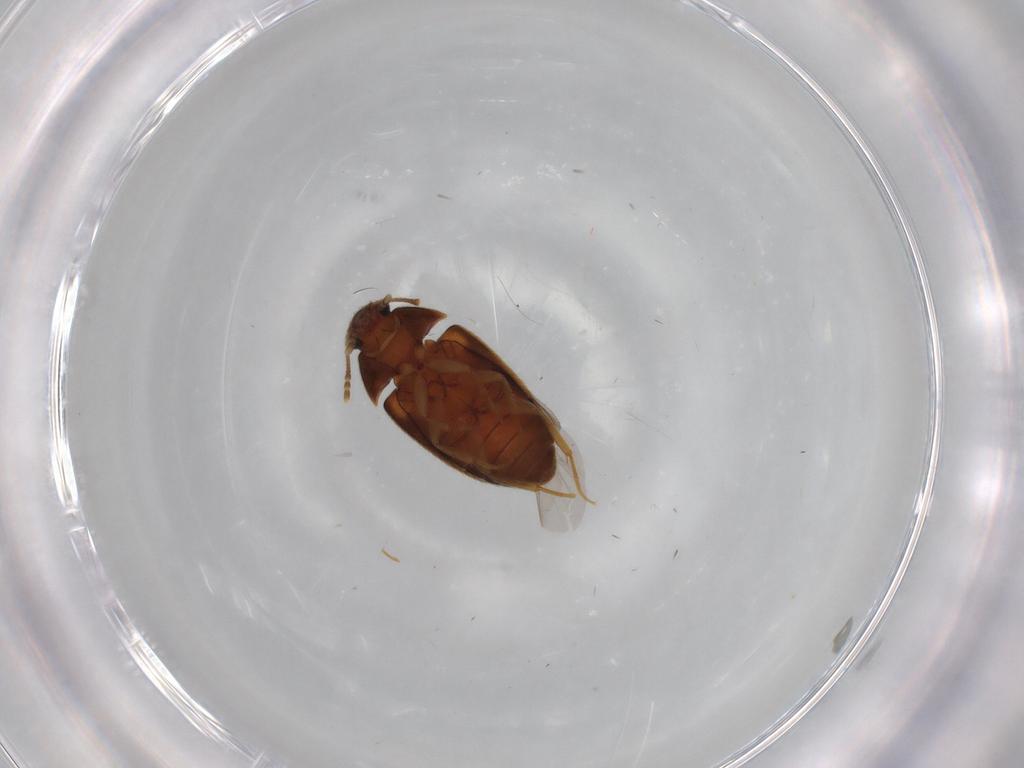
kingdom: Animalia
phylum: Arthropoda
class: Insecta
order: Coleoptera
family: Mycetophagidae
